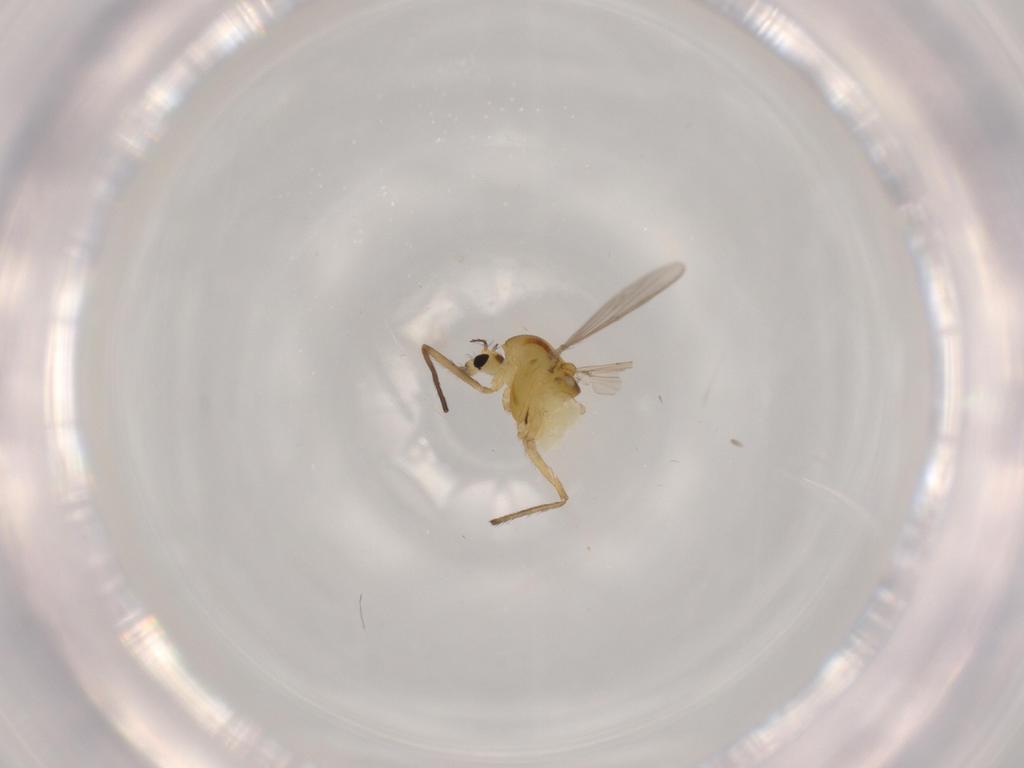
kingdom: Animalia
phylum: Arthropoda
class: Insecta
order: Diptera
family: Chironomidae
